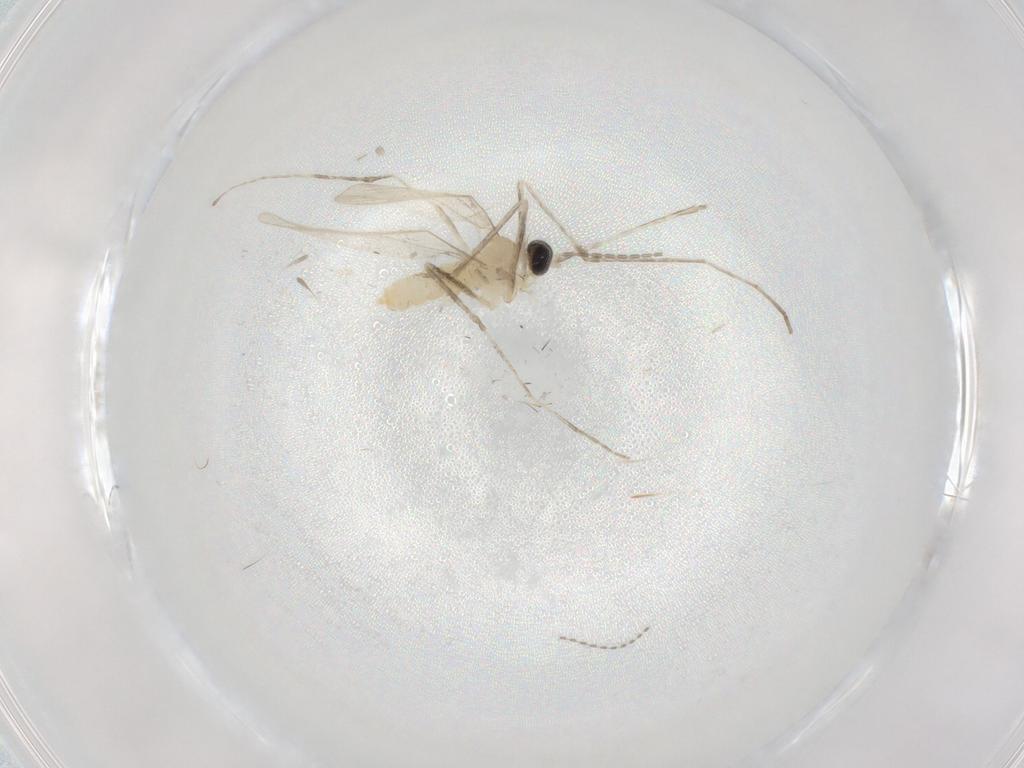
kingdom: Animalia
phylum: Arthropoda
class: Insecta
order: Diptera
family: Cecidomyiidae
